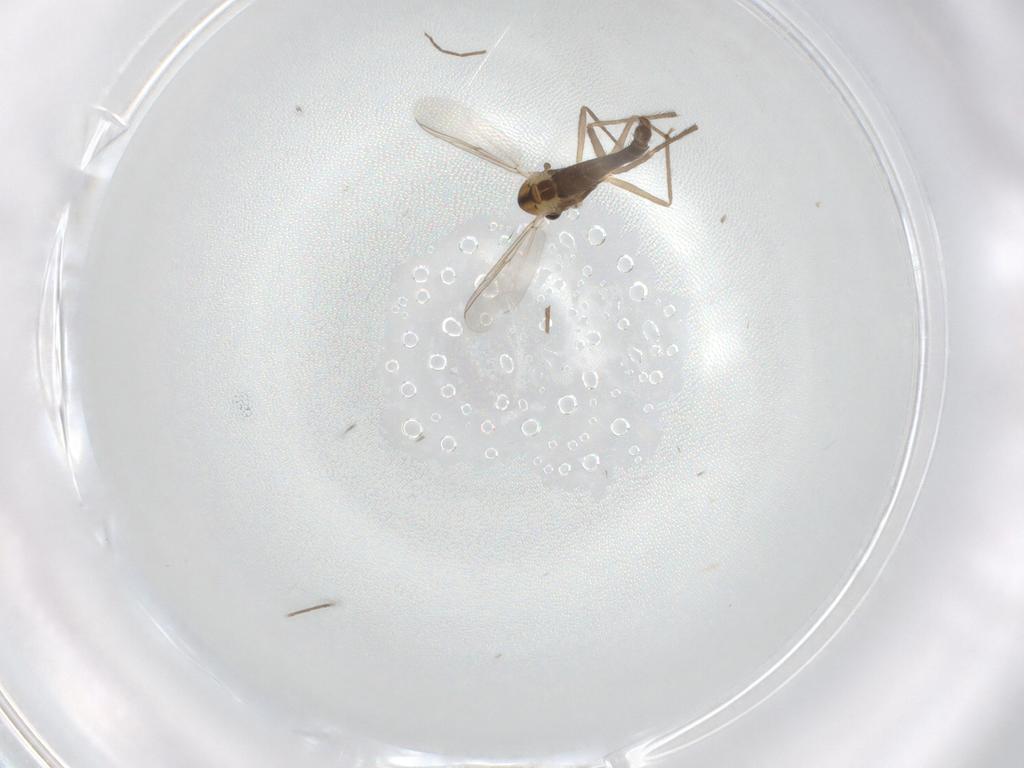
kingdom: Animalia
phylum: Arthropoda
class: Insecta
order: Diptera
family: Chironomidae
